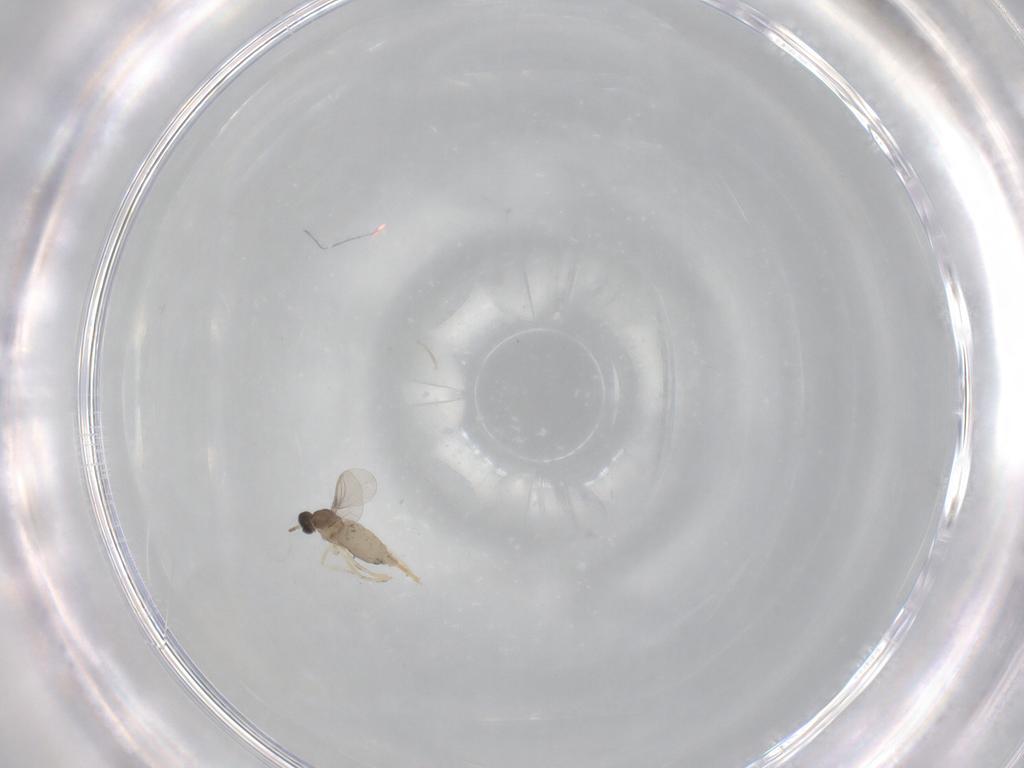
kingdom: Animalia
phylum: Arthropoda
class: Insecta
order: Diptera
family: Cecidomyiidae
